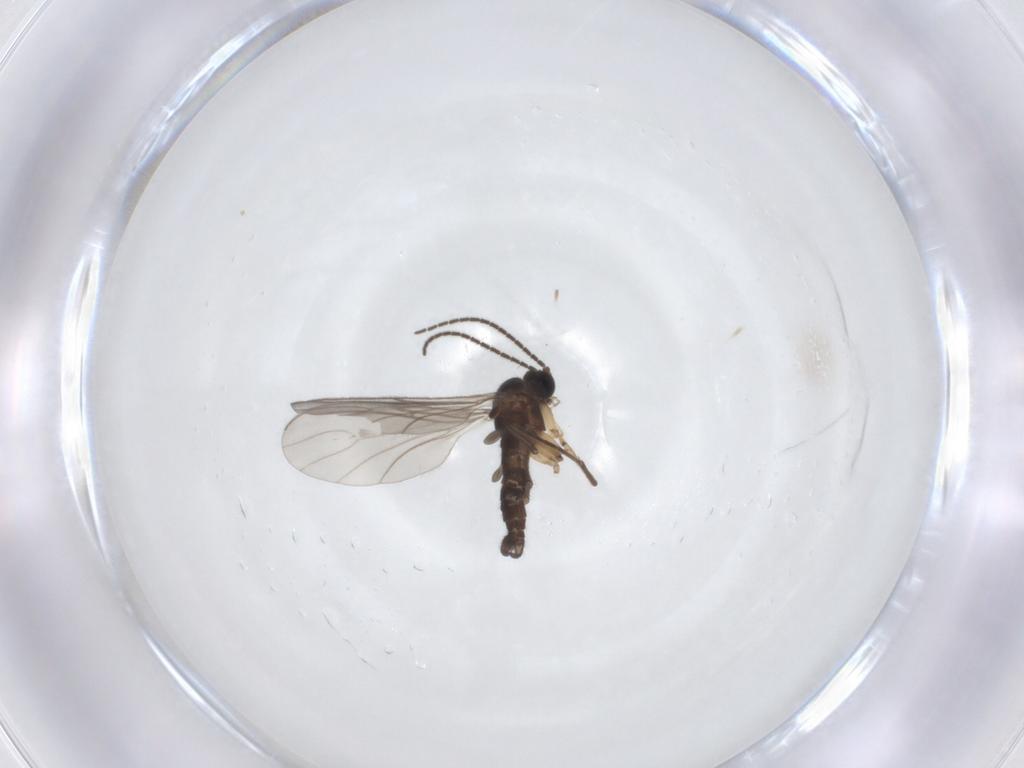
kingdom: Animalia
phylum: Arthropoda
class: Insecta
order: Diptera
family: Sciaridae
